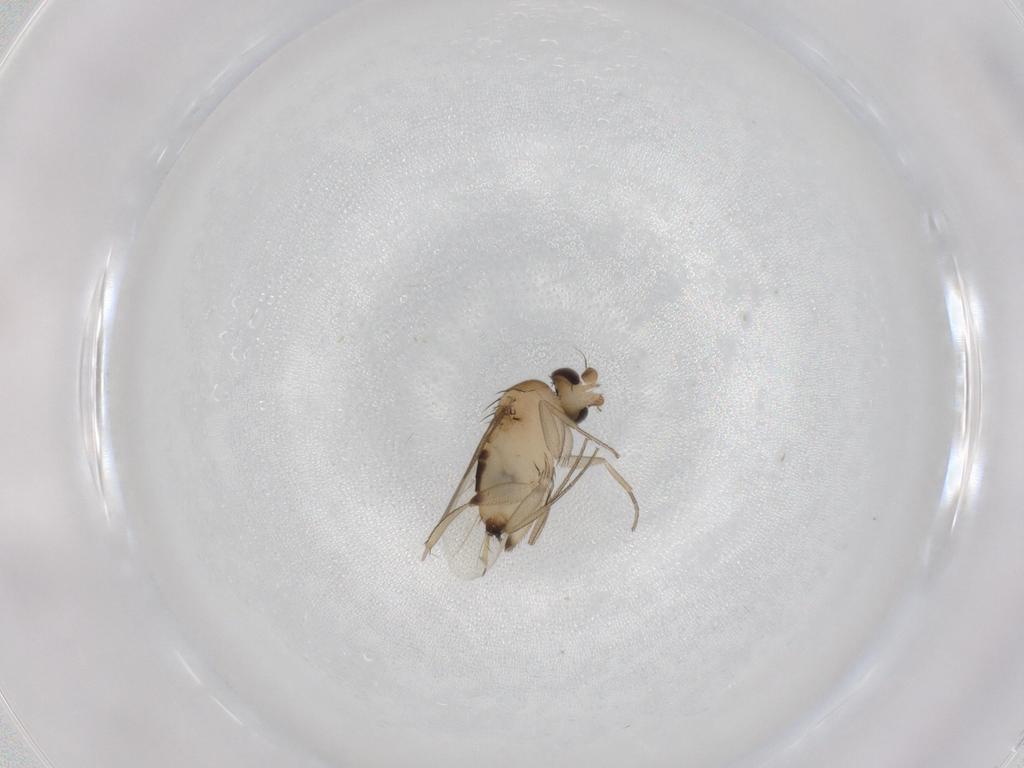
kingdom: Animalia
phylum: Arthropoda
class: Insecta
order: Diptera
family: Phoridae
